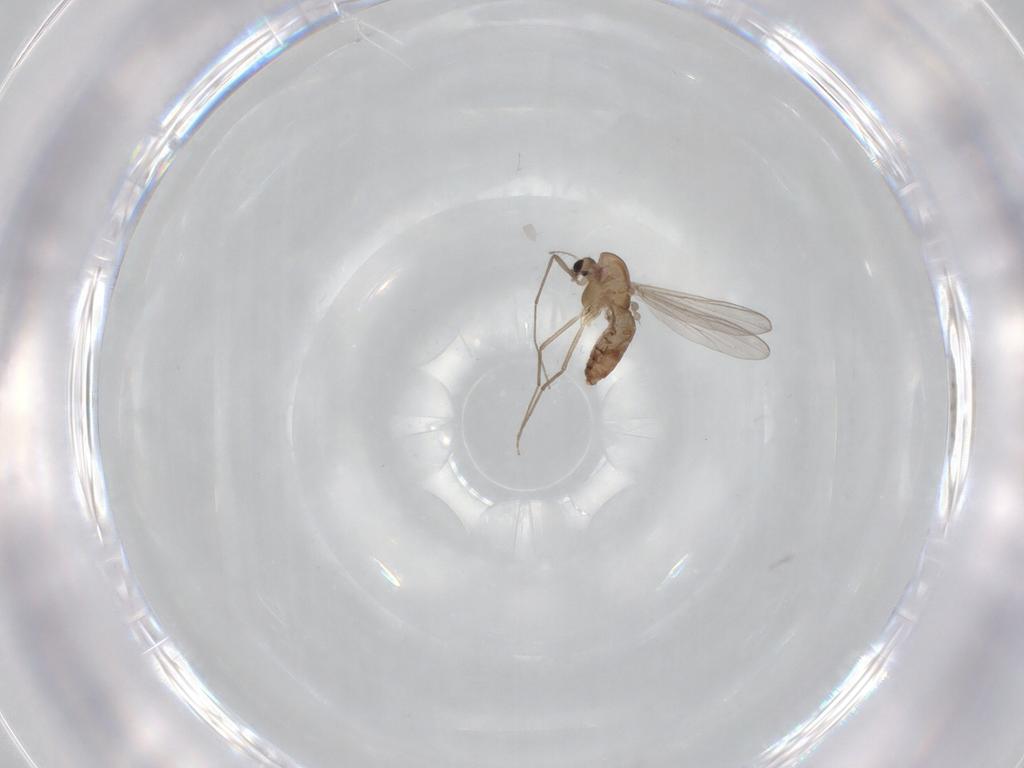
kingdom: Animalia
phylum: Arthropoda
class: Insecta
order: Diptera
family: Chironomidae
